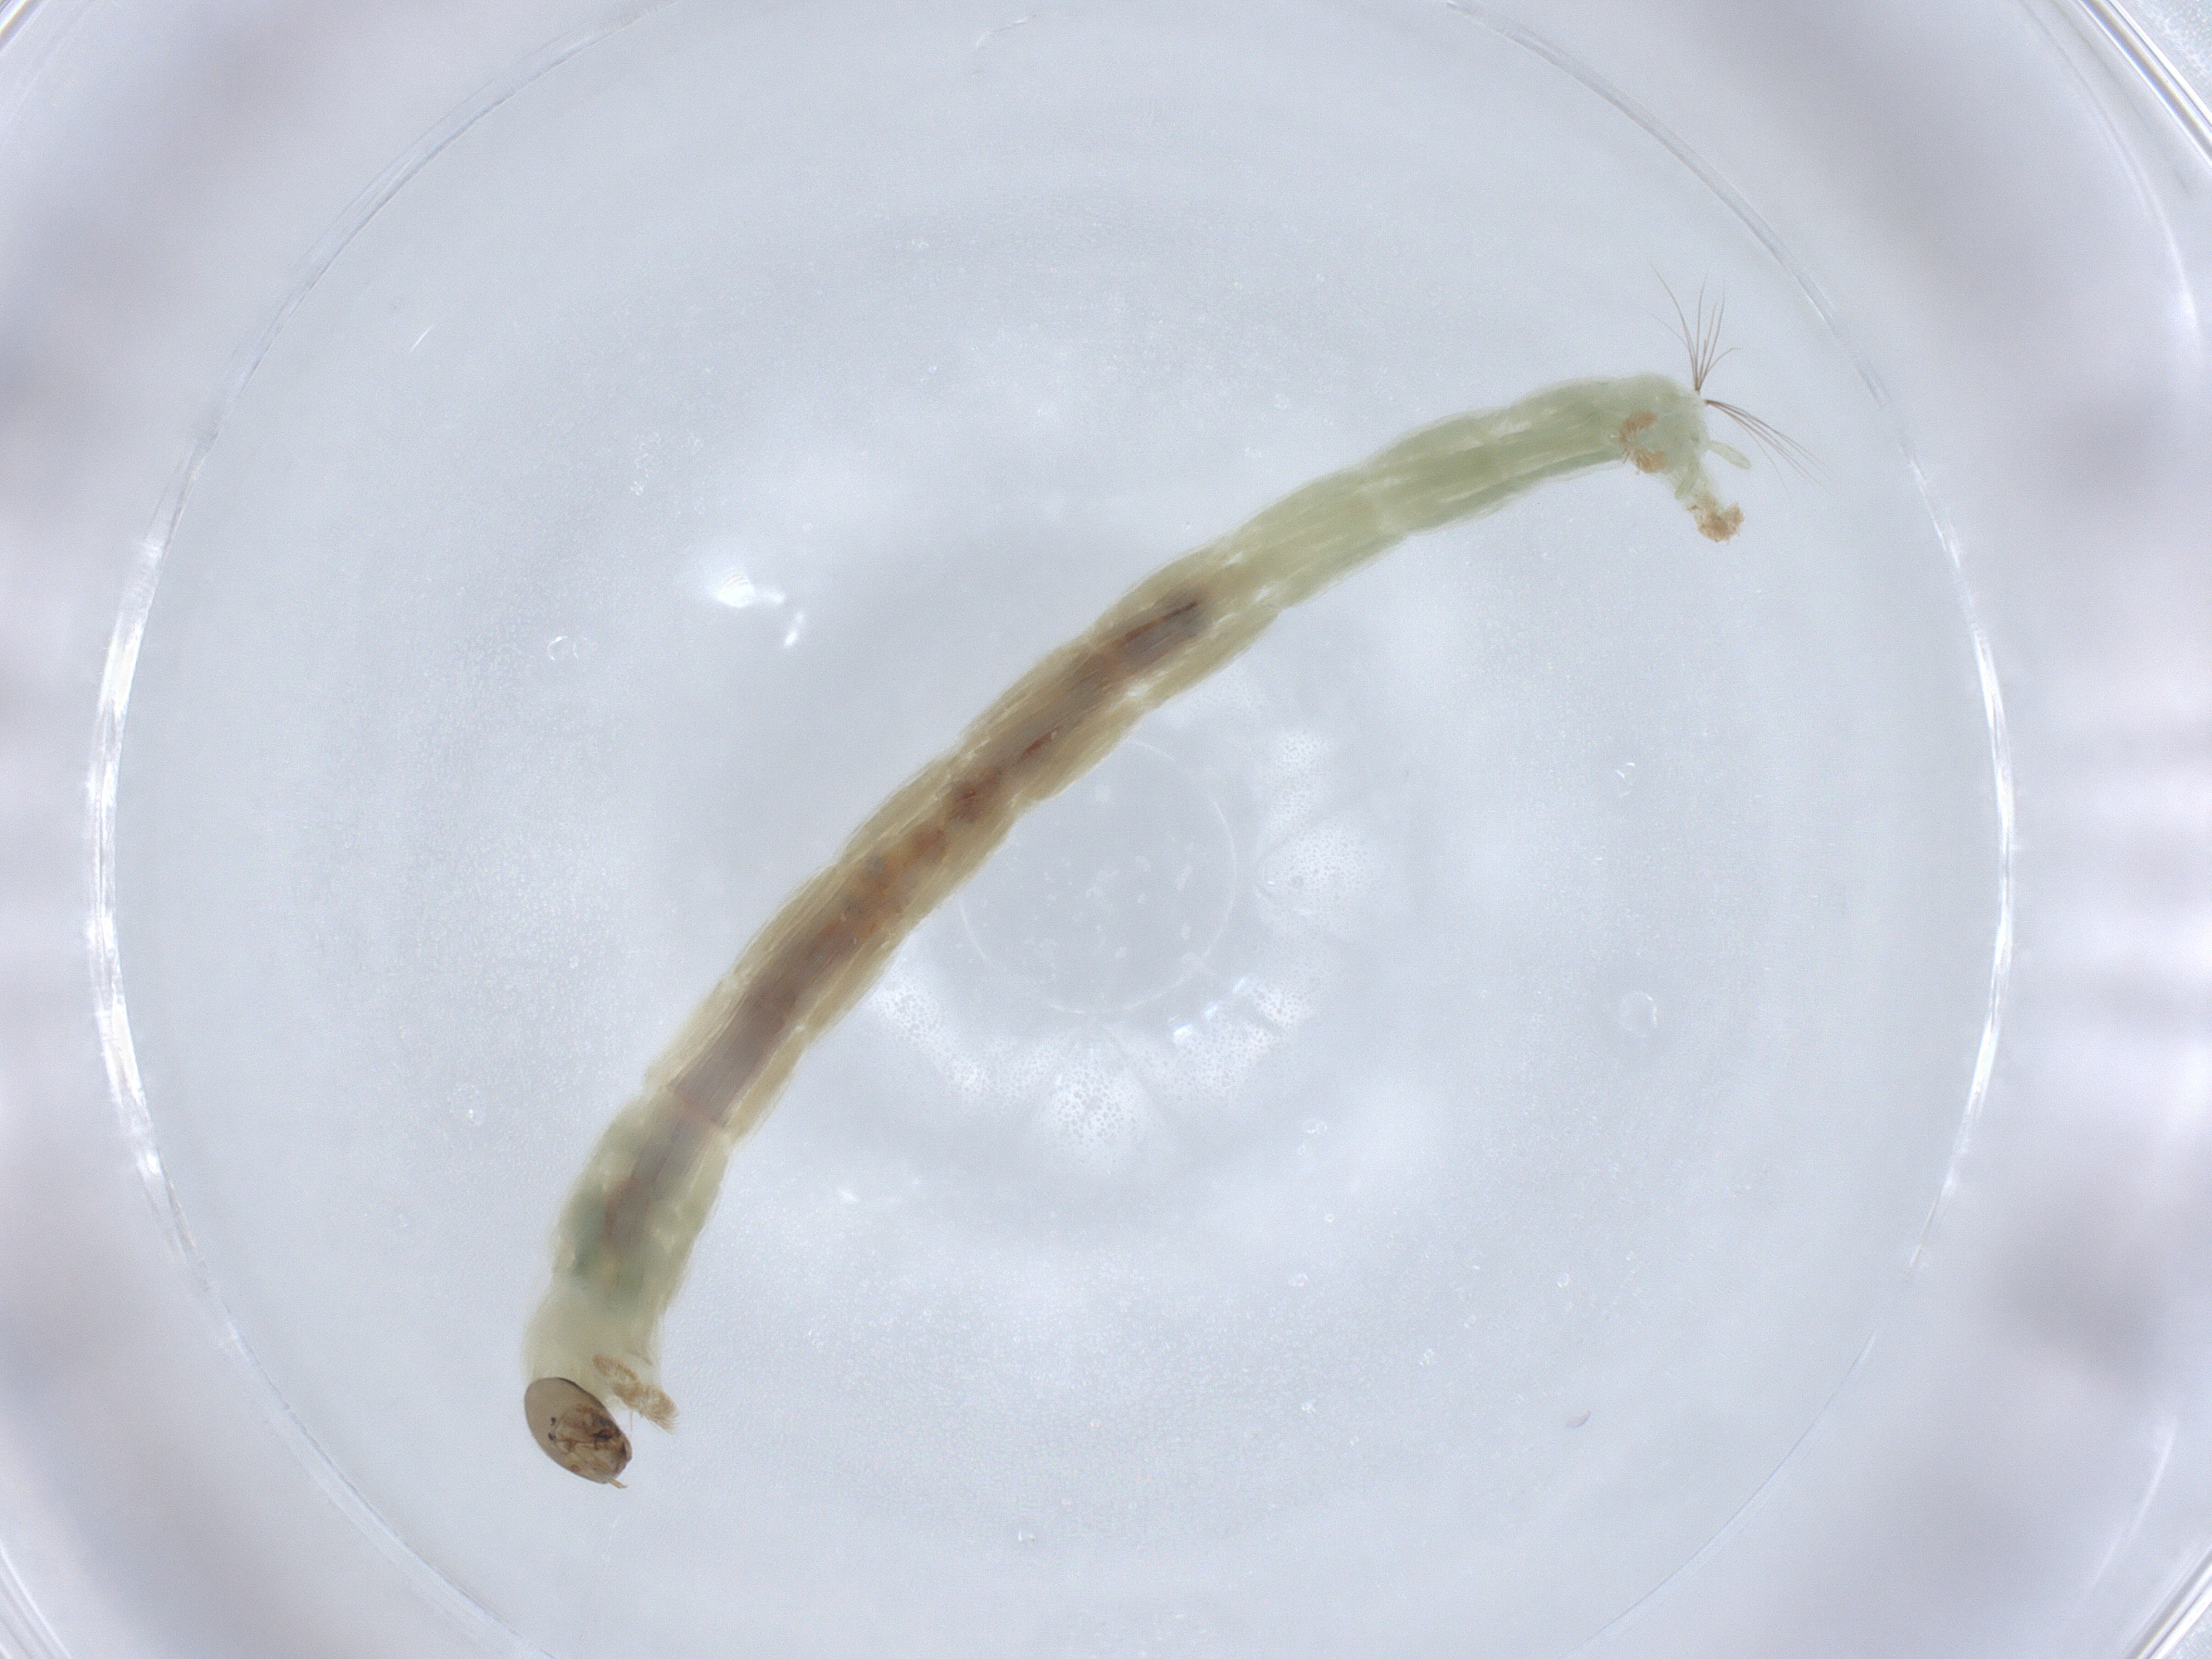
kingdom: Animalia
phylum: Arthropoda
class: Insecta
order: Diptera
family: Chironomidae
